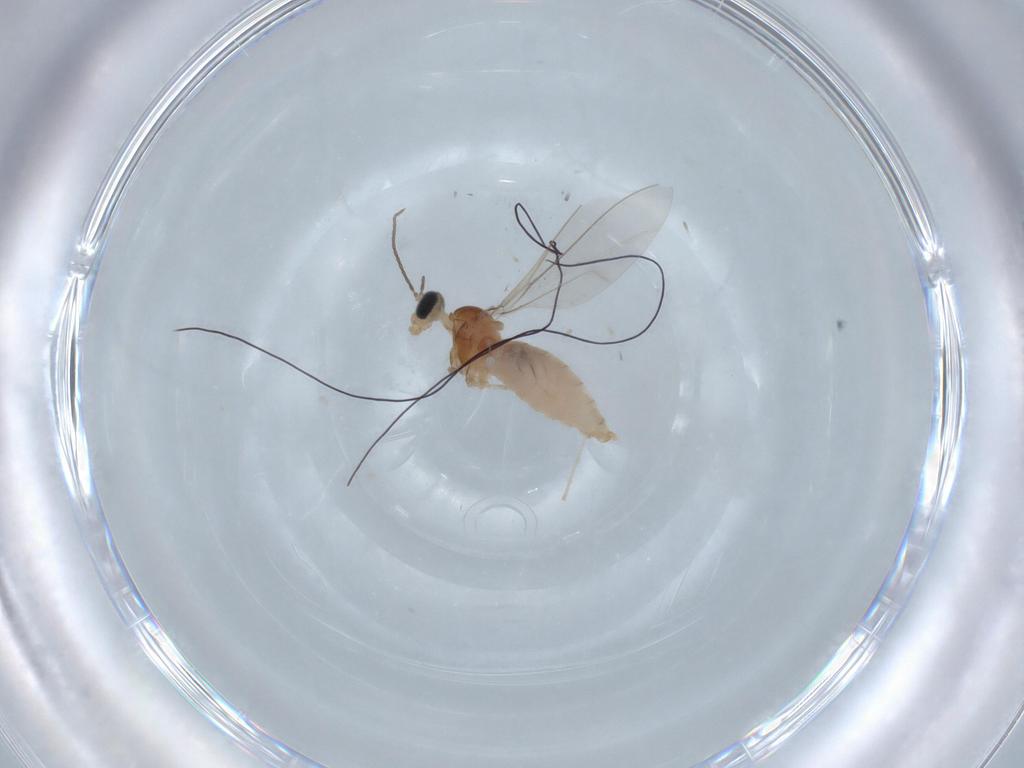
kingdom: Animalia
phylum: Arthropoda
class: Insecta
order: Diptera
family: Cecidomyiidae
